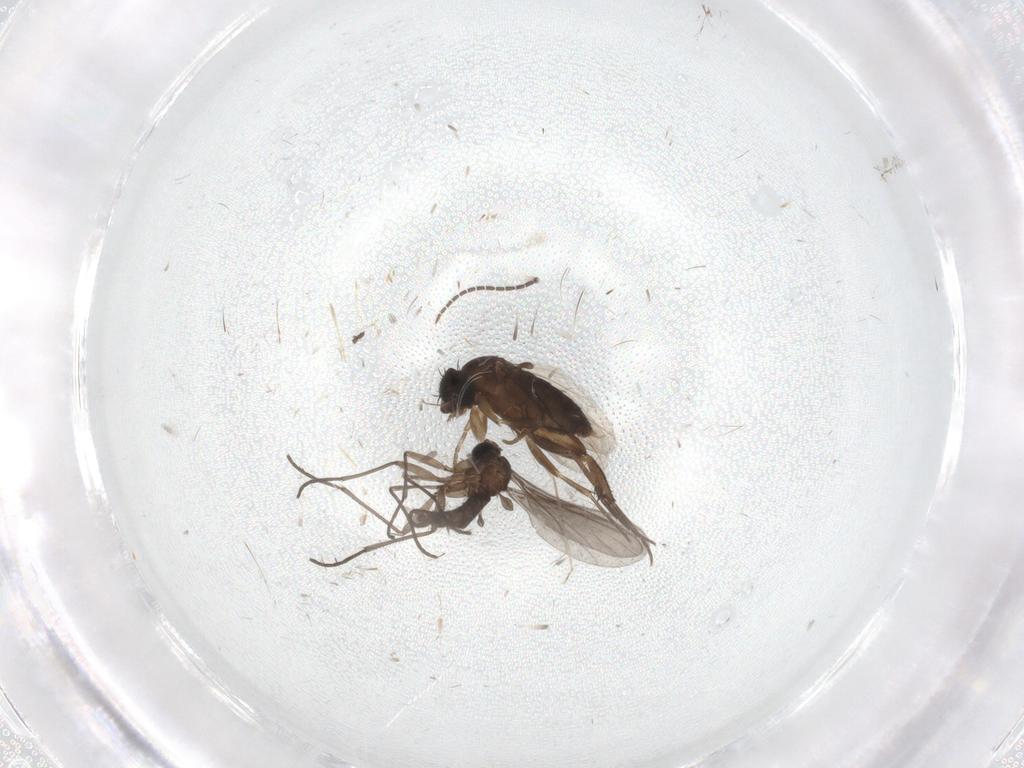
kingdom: Animalia
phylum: Arthropoda
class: Insecta
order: Diptera
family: Phoridae
